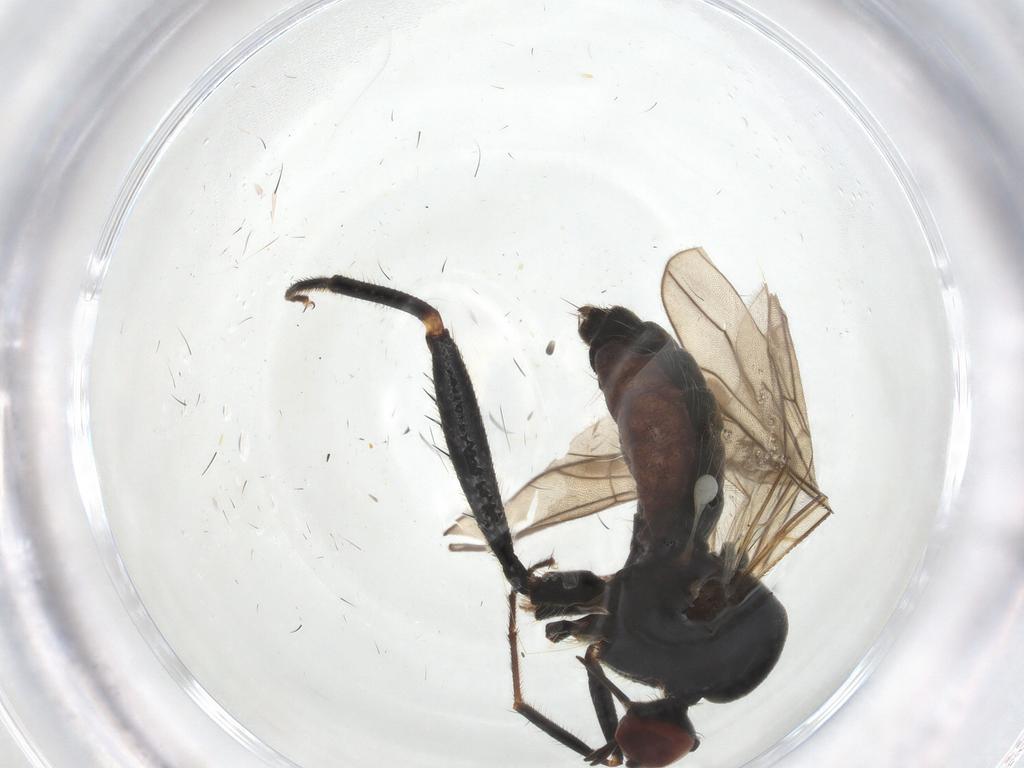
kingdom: Animalia
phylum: Arthropoda
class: Insecta
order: Diptera
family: Hybotidae
